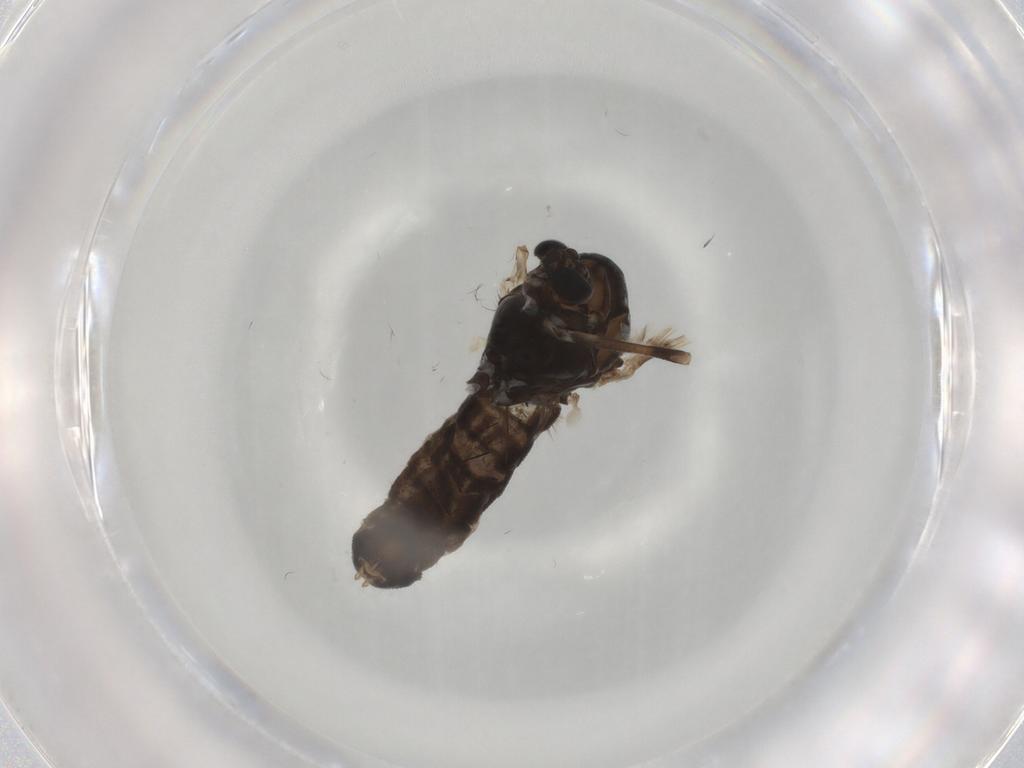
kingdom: Animalia
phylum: Arthropoda
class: Insecta
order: Diptera
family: Chironomidae
